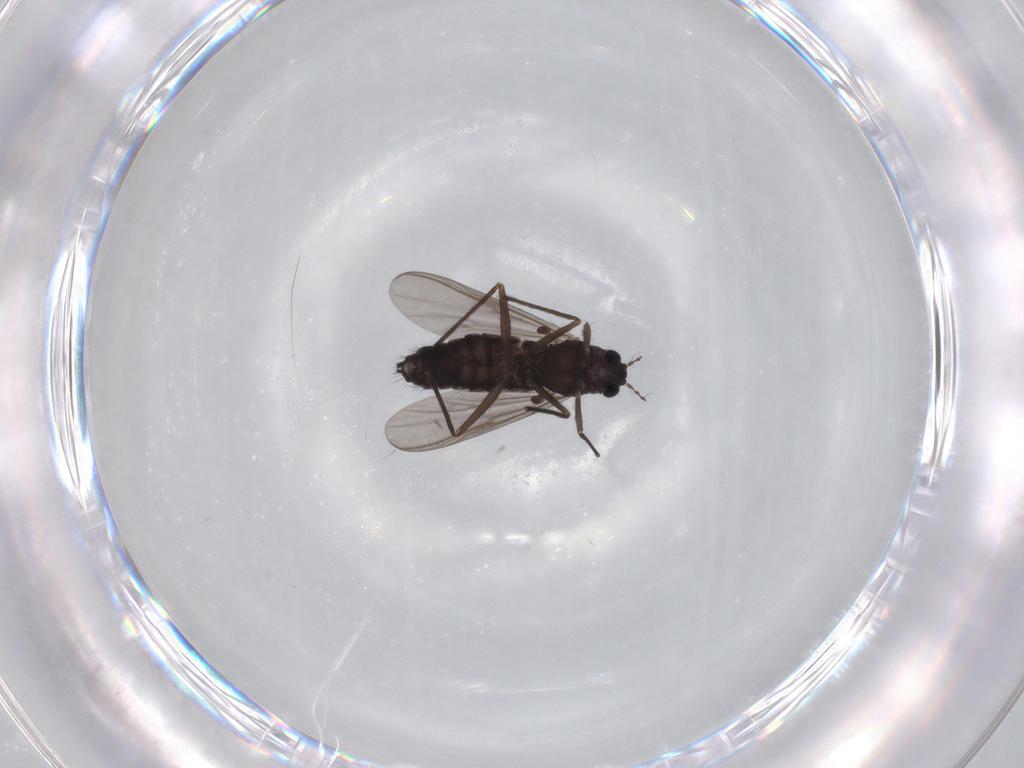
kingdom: Animalia
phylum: Arthropoda
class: Insecta
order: Diptera
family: Chironomidae
